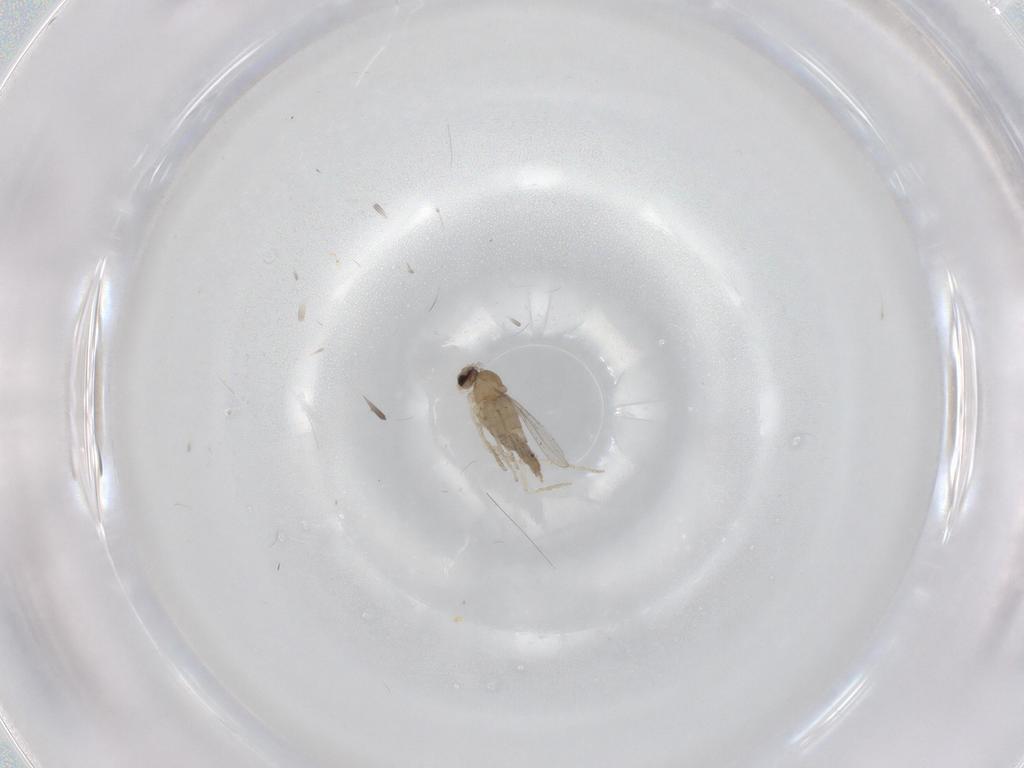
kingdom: Animalia
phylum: Arthropoda
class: Insecta
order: Diptera
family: Cecidomyiidae
